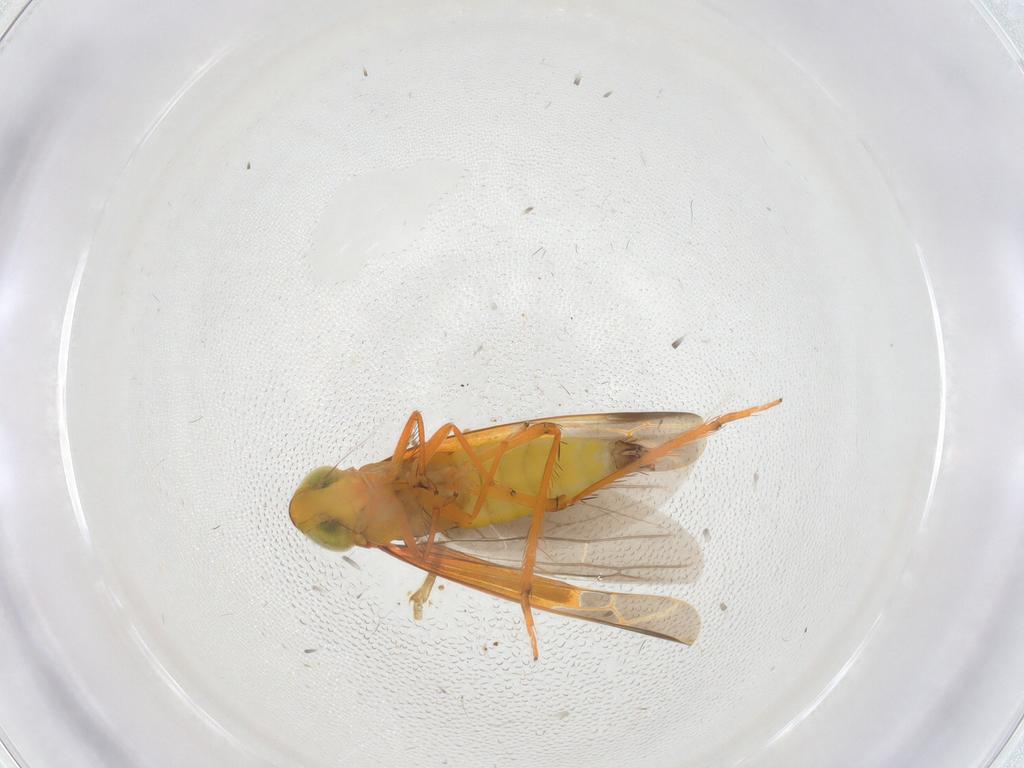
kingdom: Animalia
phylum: Arthropoda
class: Insecta
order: Hemiptera
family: Cicadellidae
